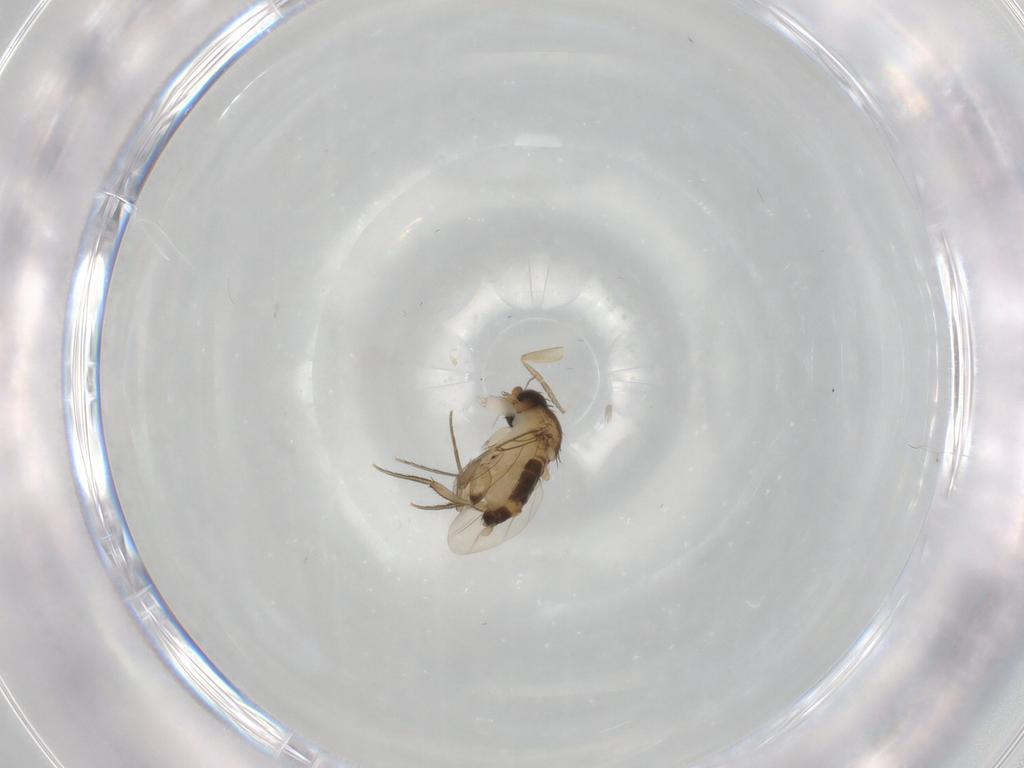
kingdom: Animalia
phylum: Arthropoda
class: Insecta
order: Diptera
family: Phoridae
